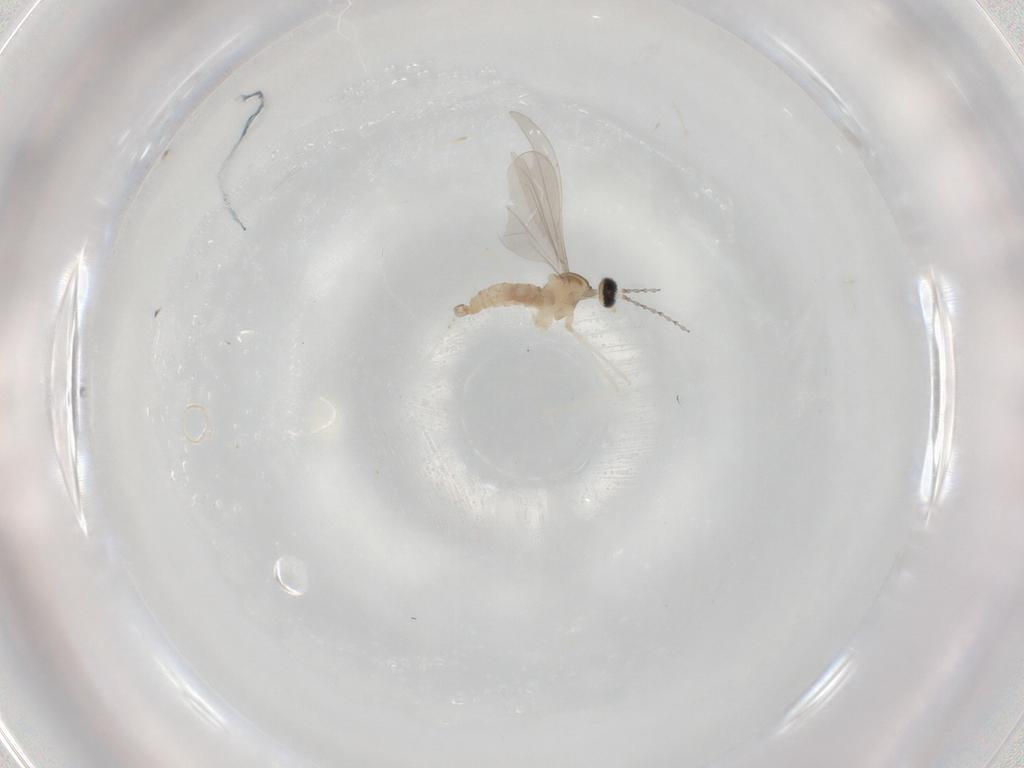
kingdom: Animalia
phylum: Arthropoda
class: Insecta
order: Diptera
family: Cecidomyiidae
